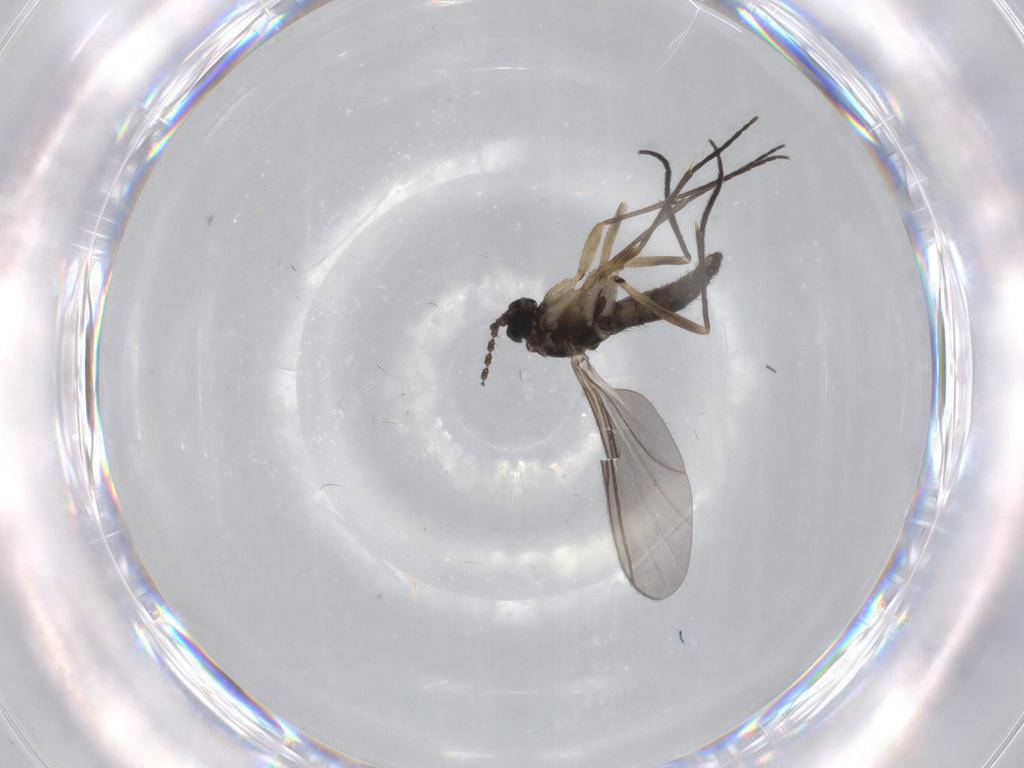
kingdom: Animalia
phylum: Arthropoda
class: Insecta
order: Diptera
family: Sciaridae
